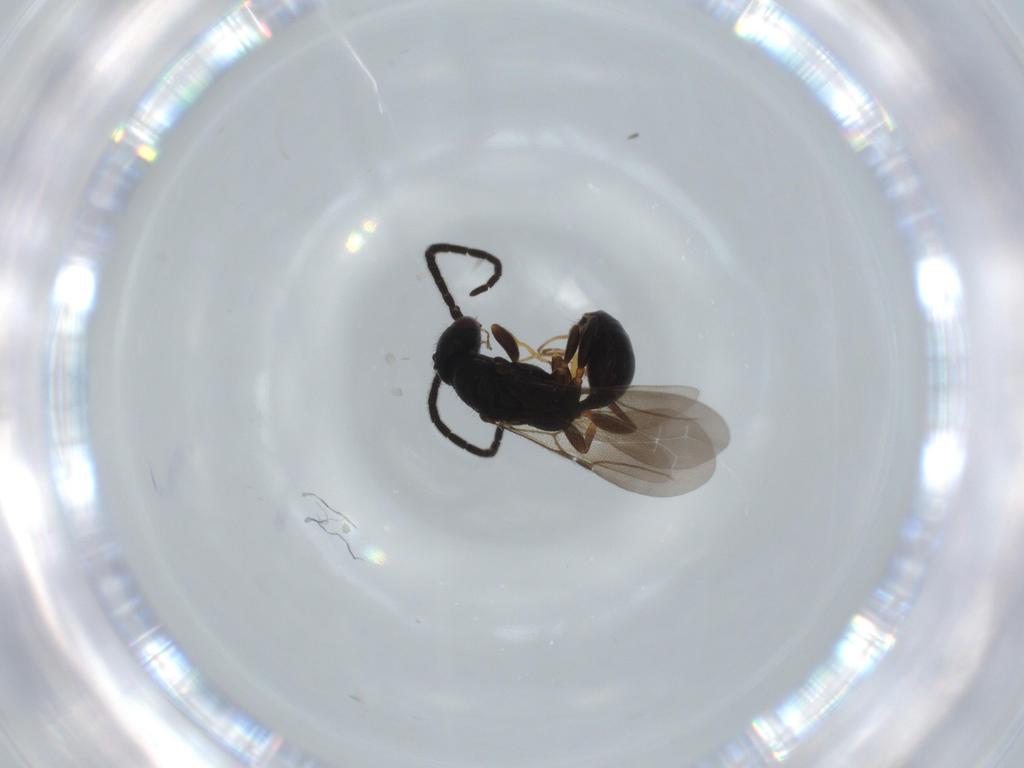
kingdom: Animalia
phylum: Arthropoda
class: Insecta
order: Hymenoptera
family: Bethylidae
